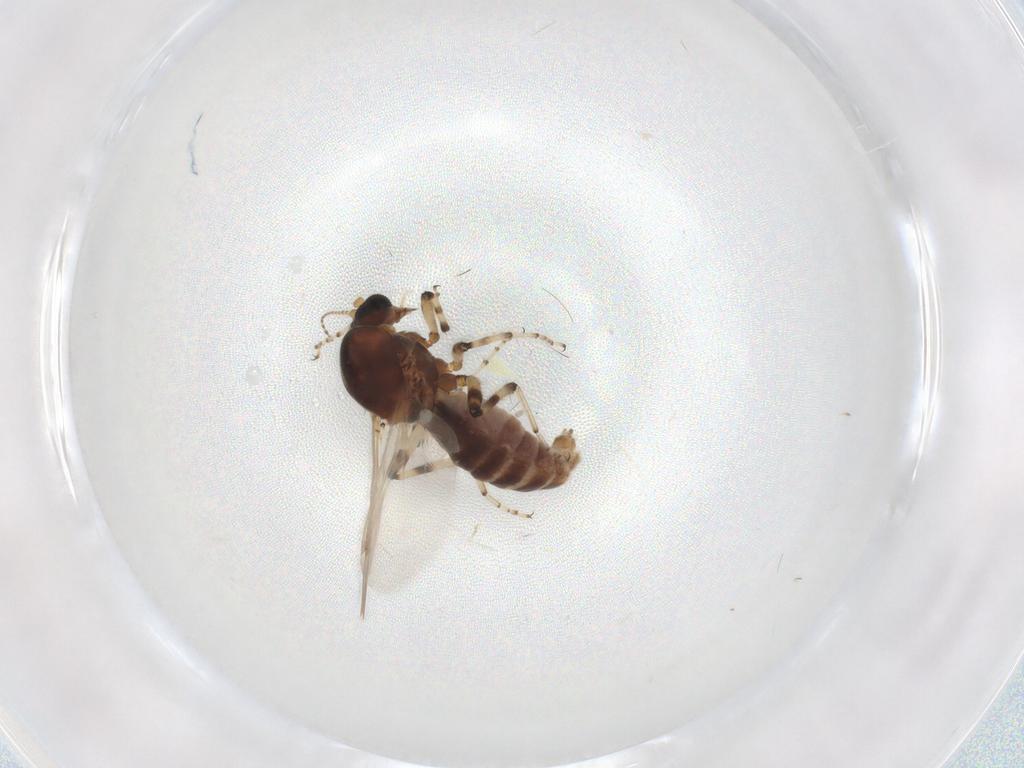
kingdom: Animalia
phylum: Arthropoda
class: Insecta
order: Diptera
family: Ceratopogonidae
